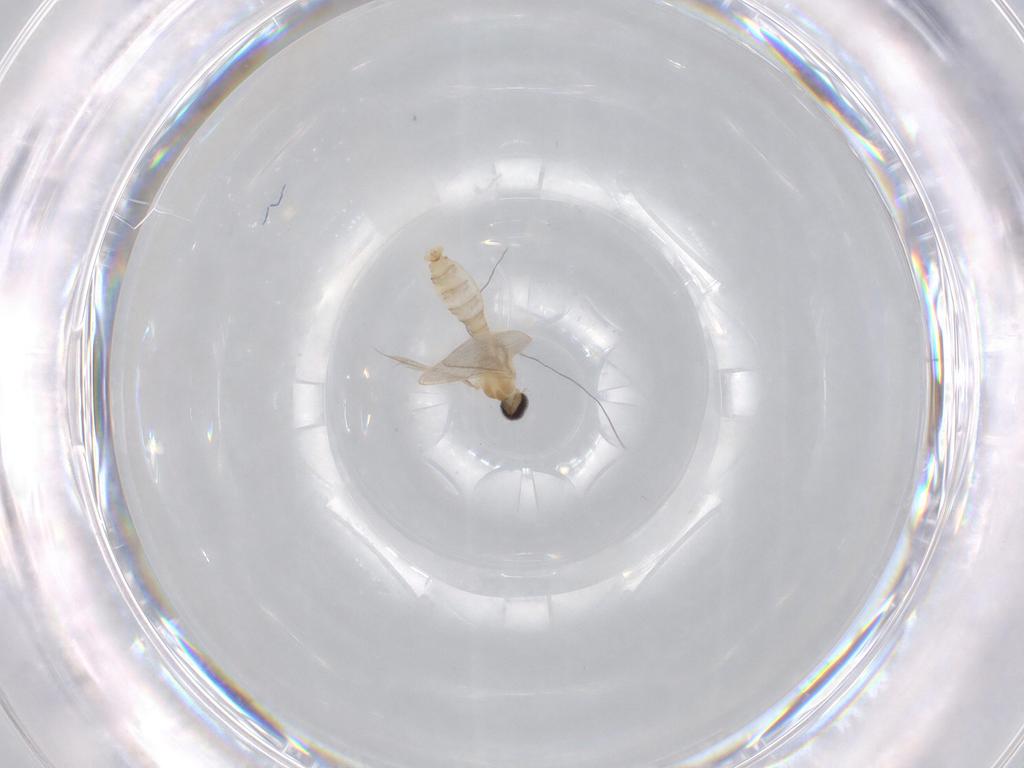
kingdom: Animalia
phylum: Arthropoda
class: Insecta
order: Diptera
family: Cecidomyiidae
